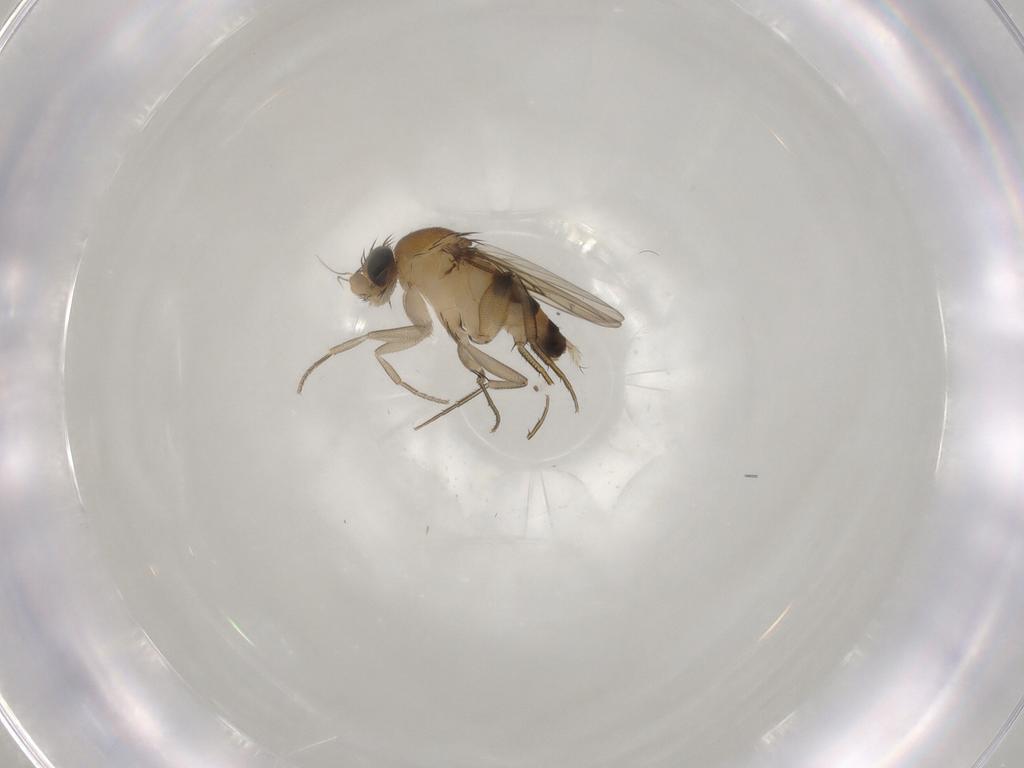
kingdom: Animalia
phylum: Arthropoda
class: Insecta
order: Diptera
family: Phoridae
